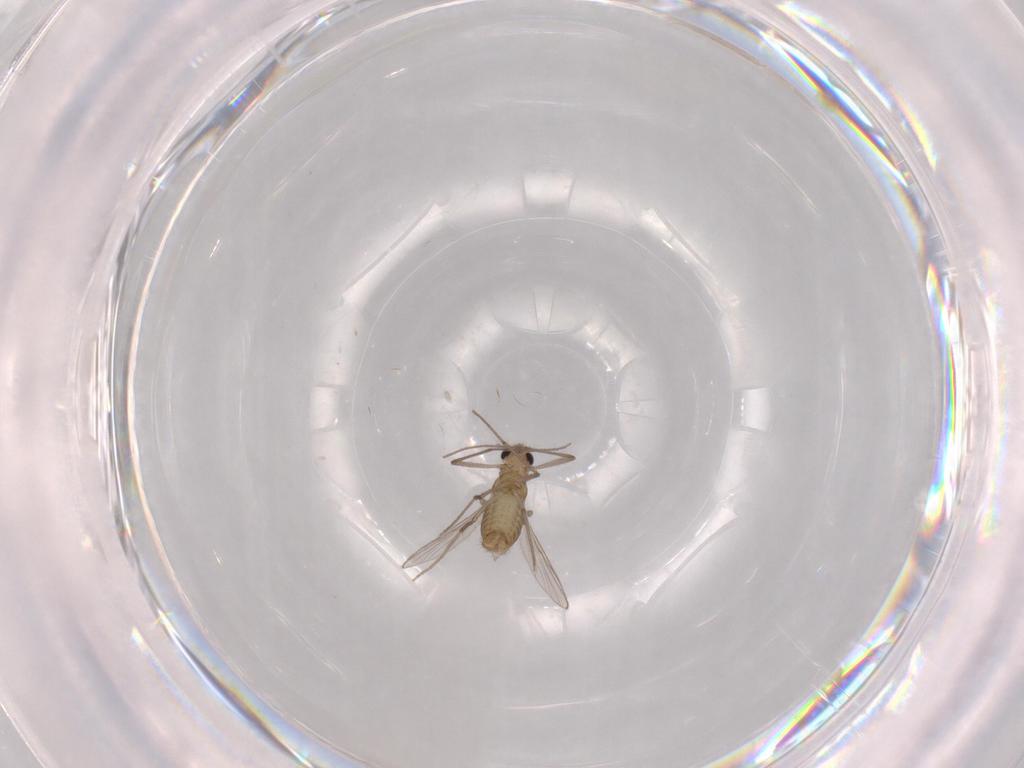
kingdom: Animalia
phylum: Arthropoda
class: Insecta
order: Diptera
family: Chironomidae
